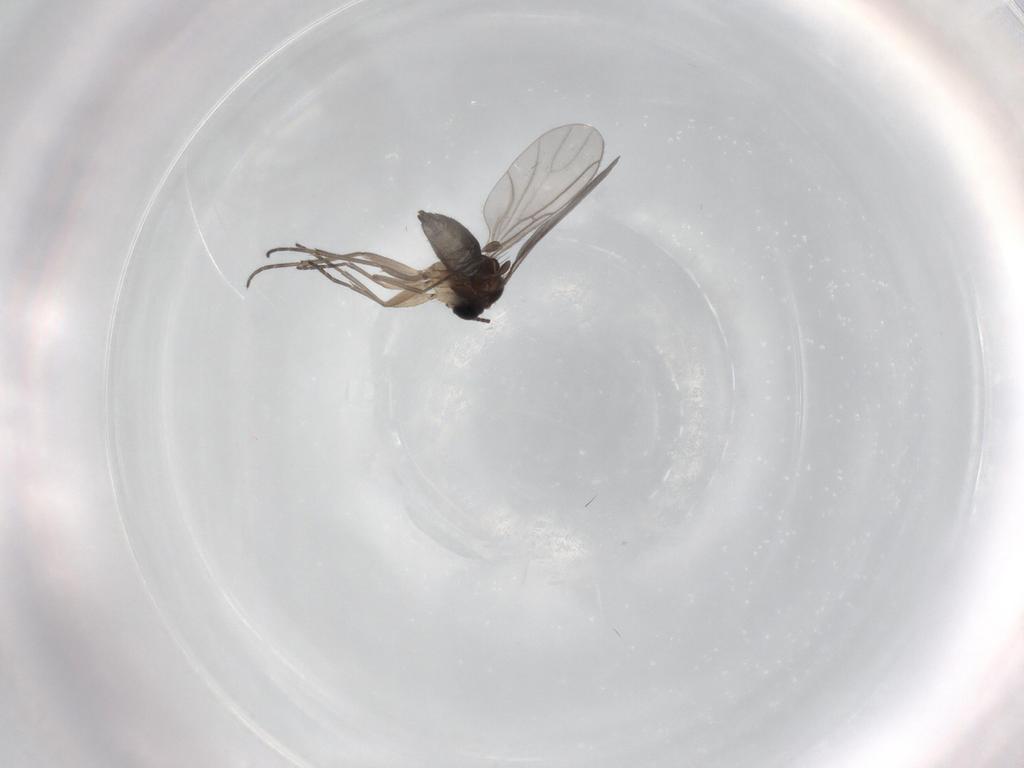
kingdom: Animalia
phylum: Arthropoda
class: Insecta
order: Diptera
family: Sciaridae
